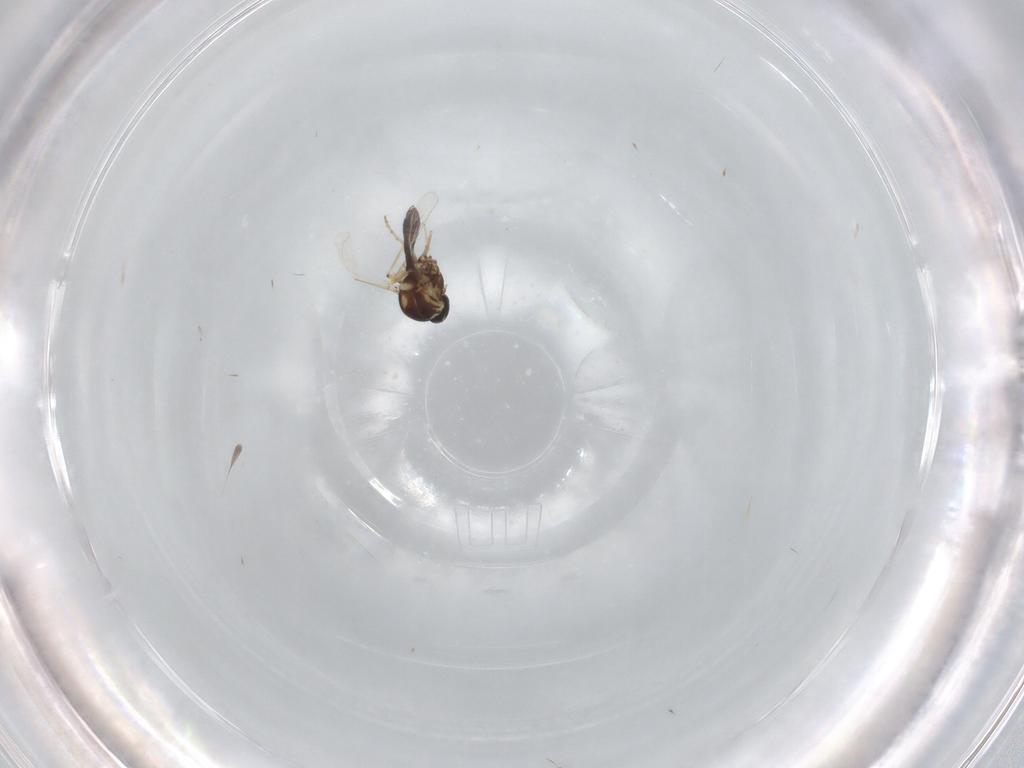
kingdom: Animalia
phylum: Arthropoda
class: Insecta
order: Diptera
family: Ceratopogonidae
